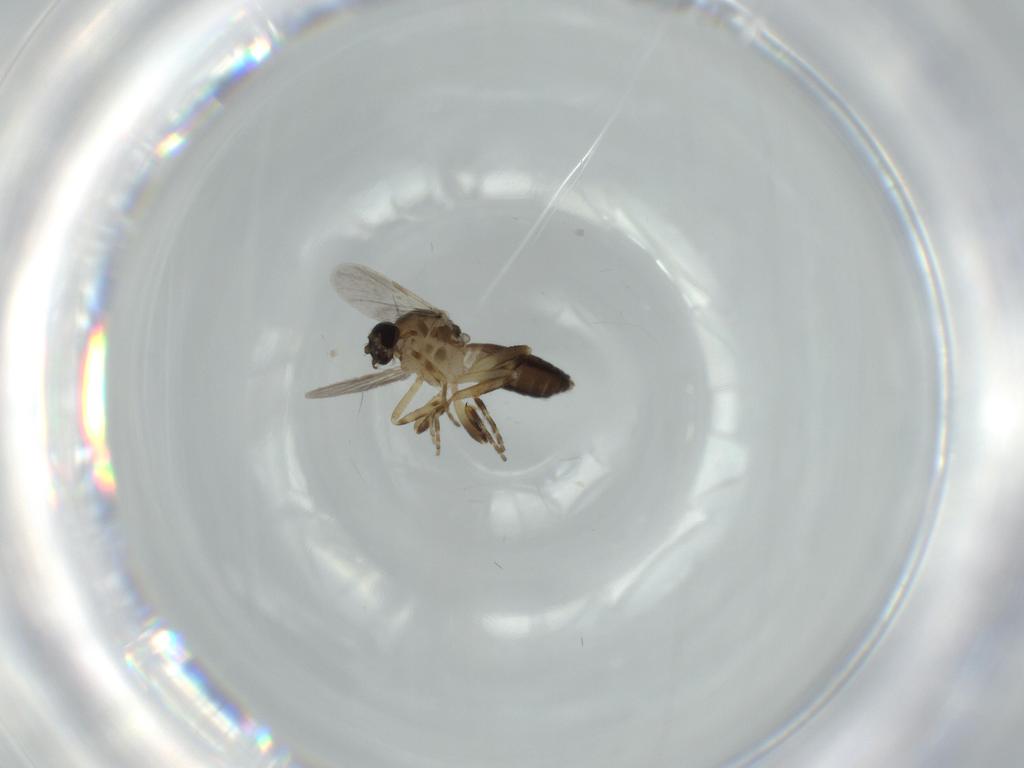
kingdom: Animalia
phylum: Arthropoda
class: Insecta
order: Diptera
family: Ceratopogonidae
